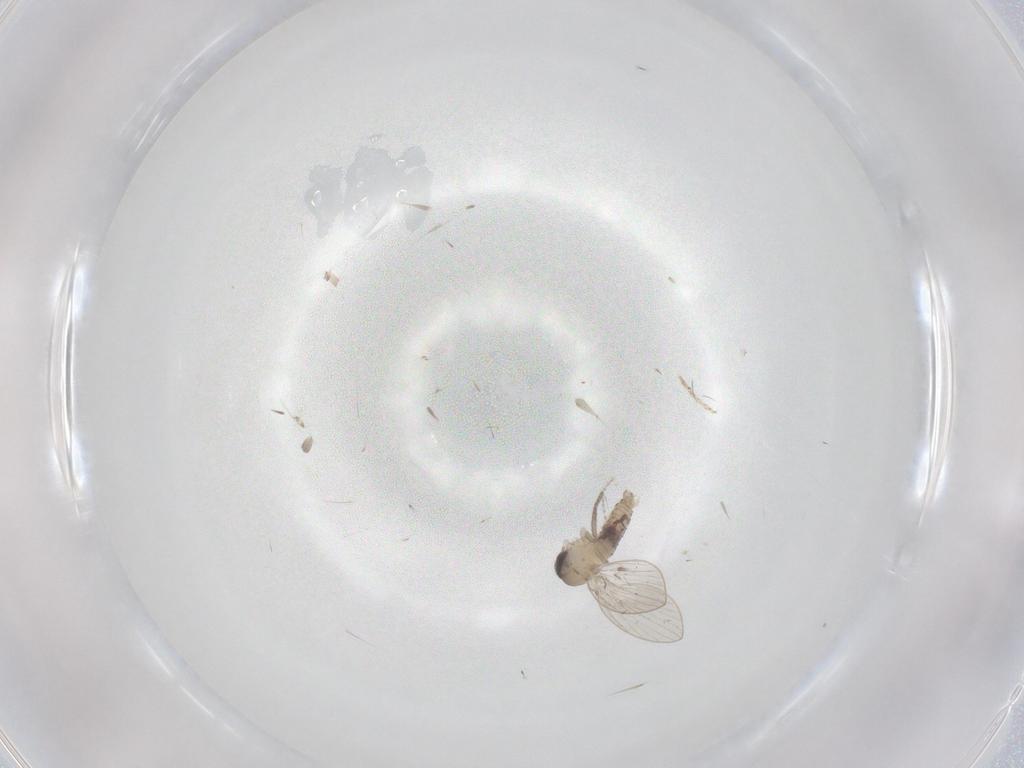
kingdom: Animalia
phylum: Arthropoda
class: Insecta
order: Diptera
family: Ceratopogonidae
